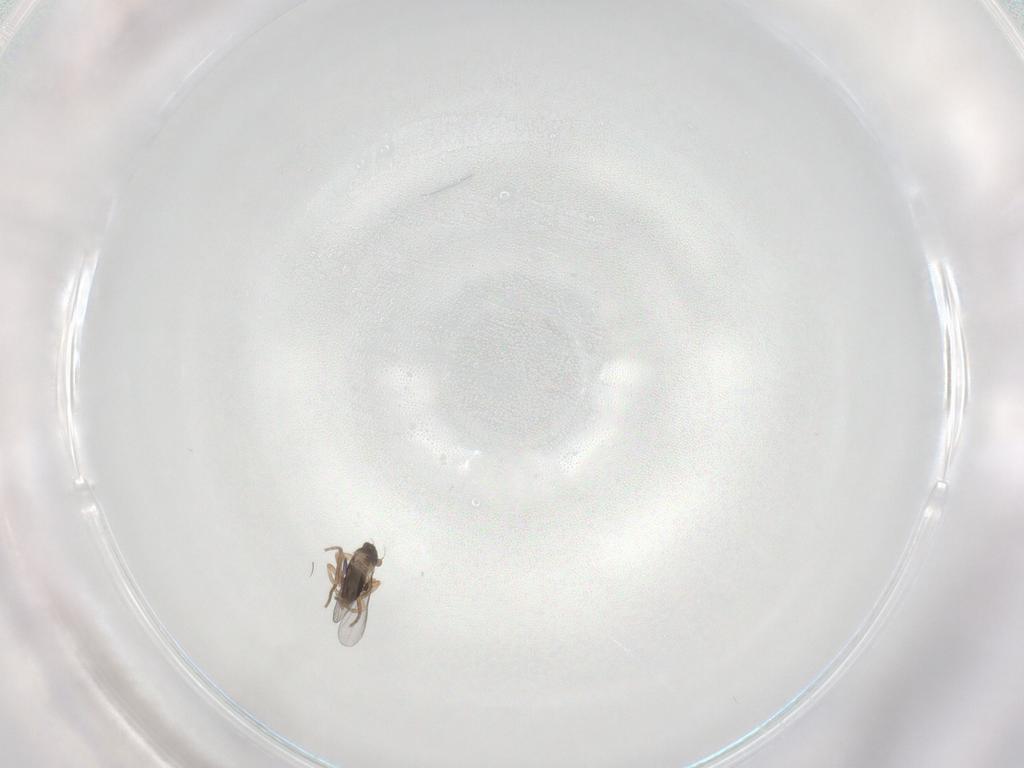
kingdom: Animalia
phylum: Arthropoda
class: Insecta
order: Diptera
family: Phoridae
